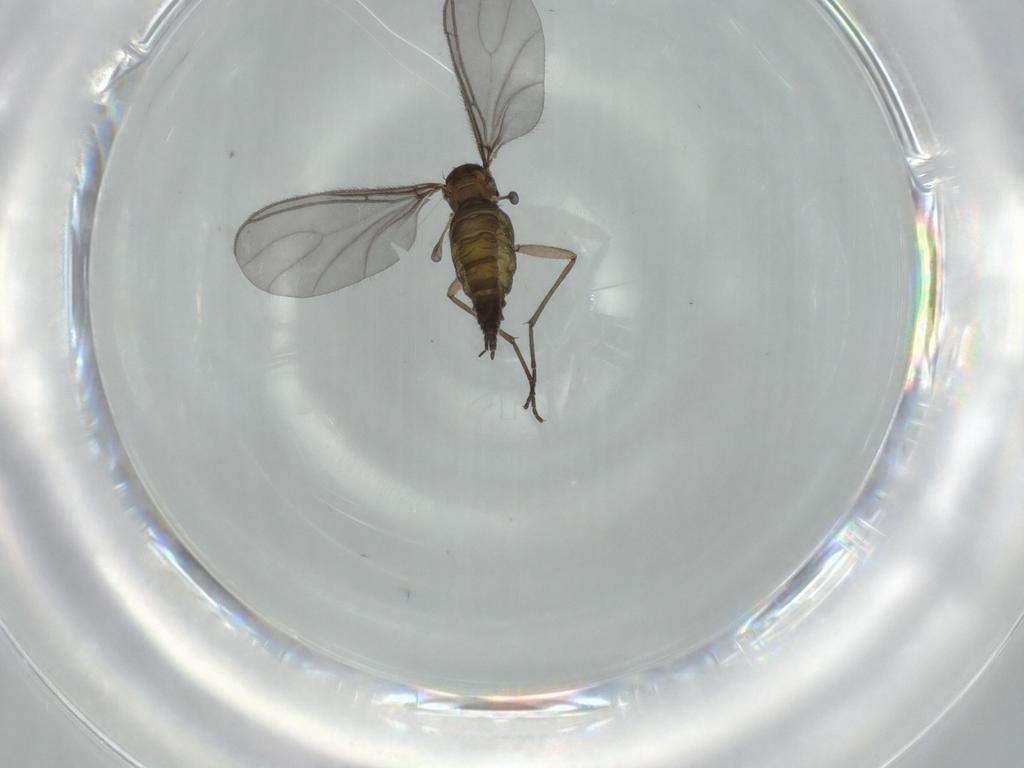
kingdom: Animalia
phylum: Arthropoda
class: Insecta
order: Diptera
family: Sciaridae
